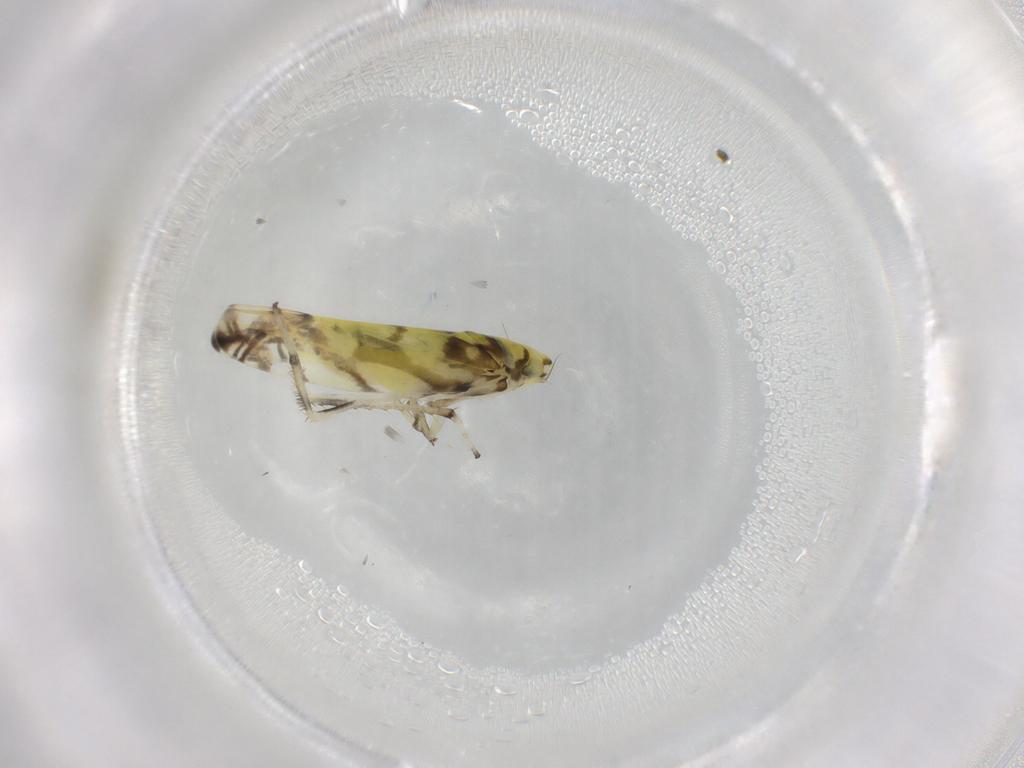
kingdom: Animalia
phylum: Arthropoda
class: Insecta
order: Hemiptera
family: Cicadellidae
